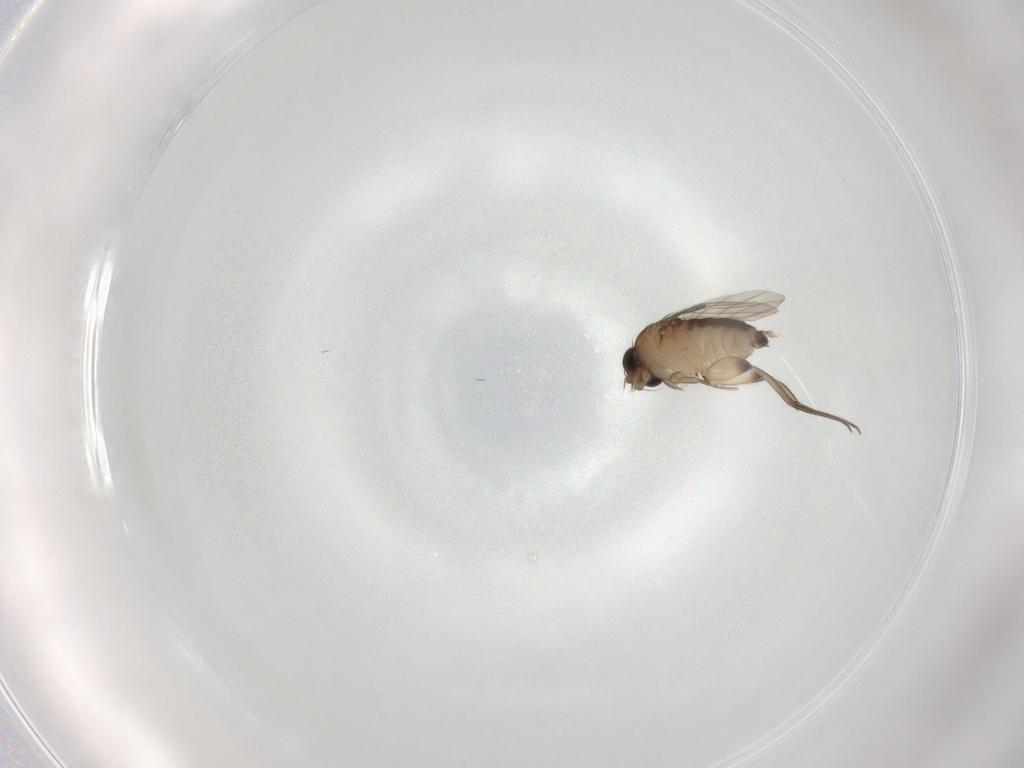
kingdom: Animalia
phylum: Arthropoda
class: Insecta
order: Diptera
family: Phoridae
